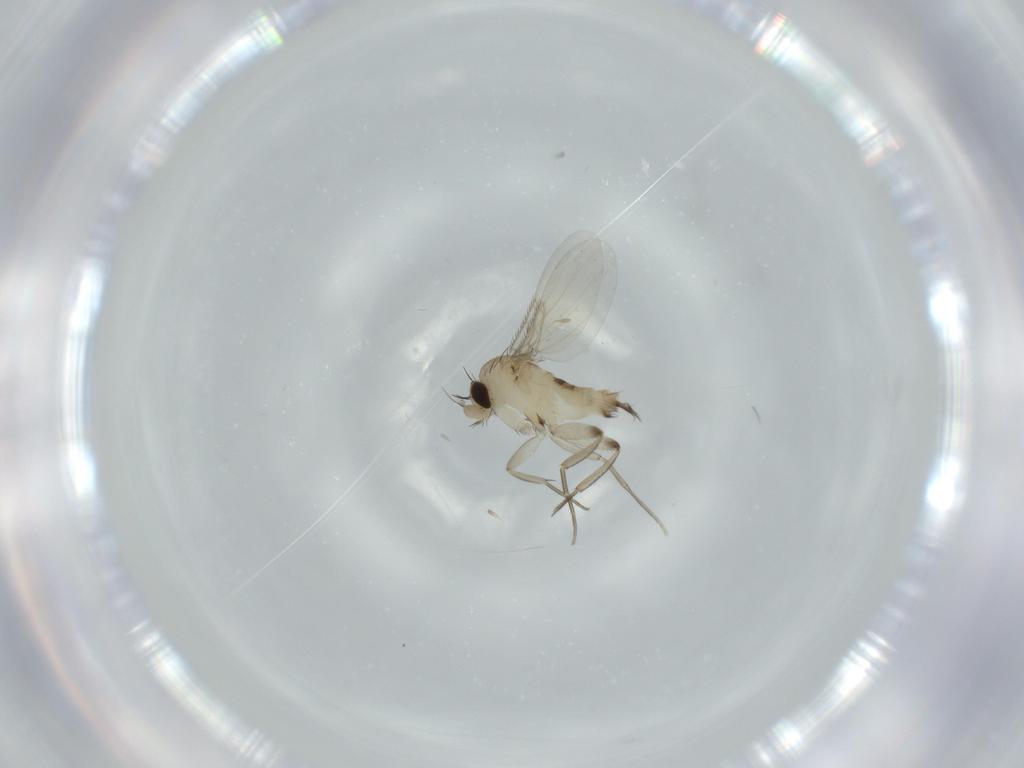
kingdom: Animalia
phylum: Arthropoda
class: Insecta
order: Diptera
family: Phoridae
